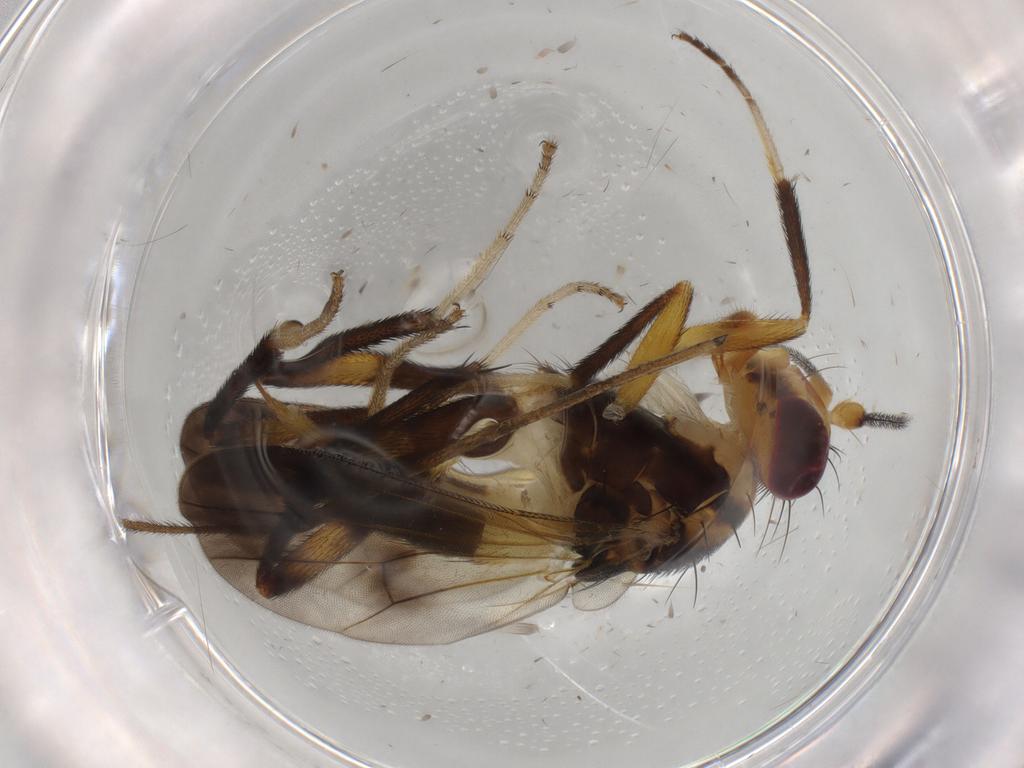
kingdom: Animalia
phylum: Arthropoda
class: Insecta
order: Diptera
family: Clusiidae
